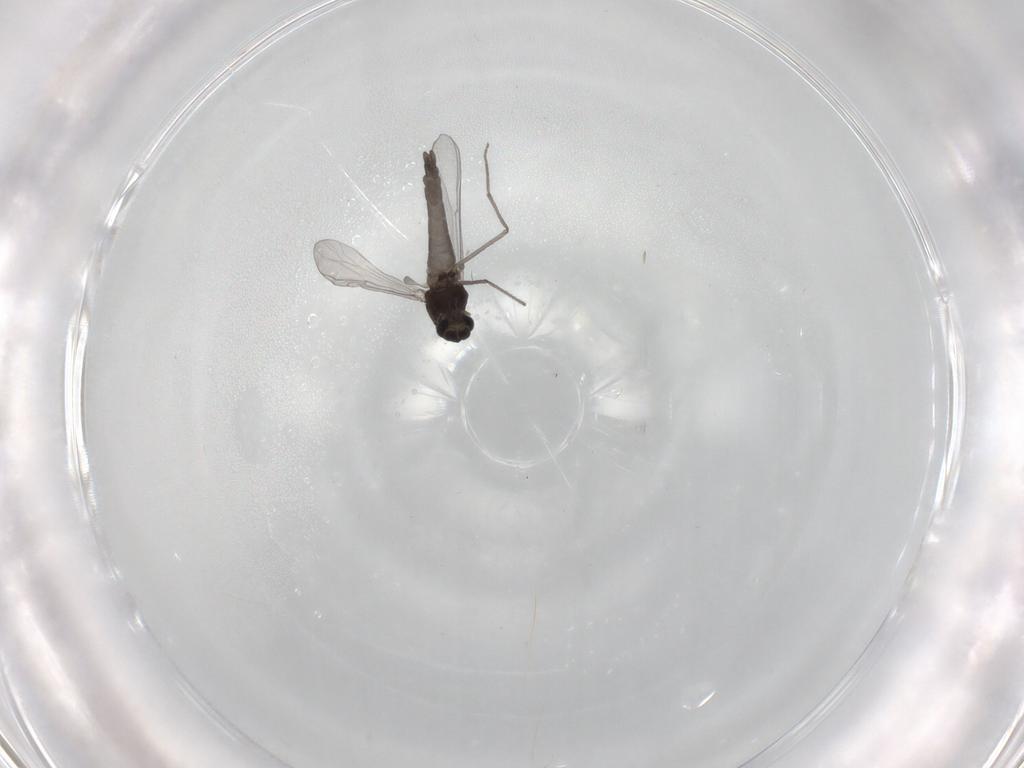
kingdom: Animalia
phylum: Arthropoda
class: Insecta
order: Diptera
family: Chironomidae
